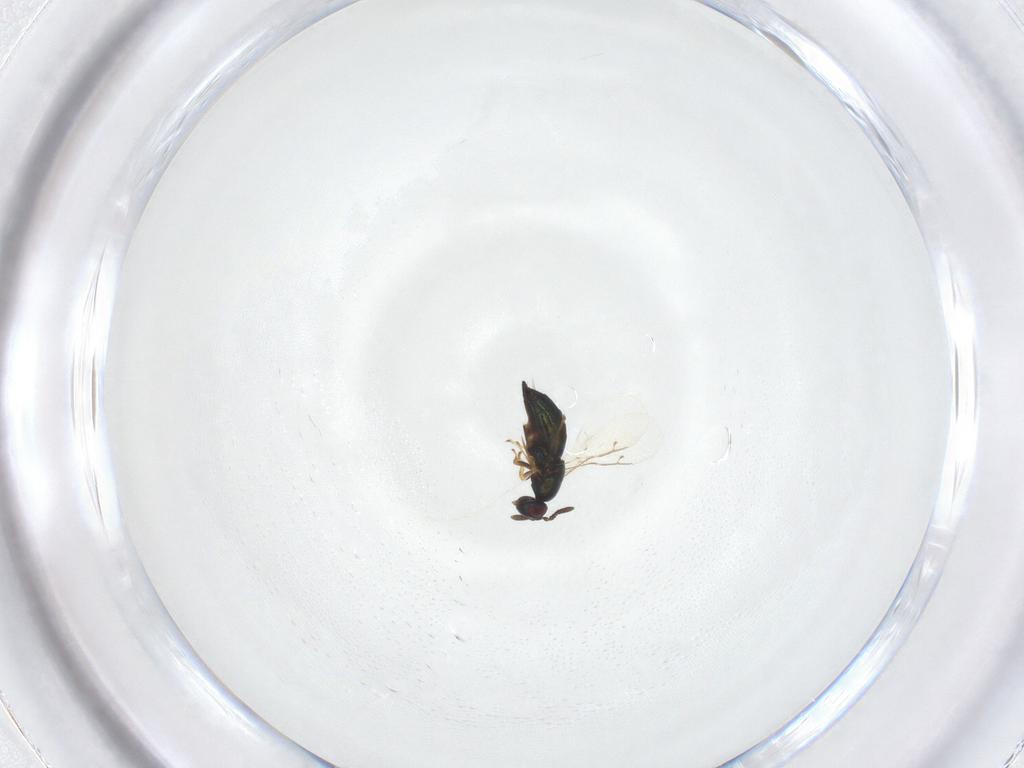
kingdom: Animalia
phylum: Arthropoda
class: Insecta
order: Hymenoptera
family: Pteromalidae
